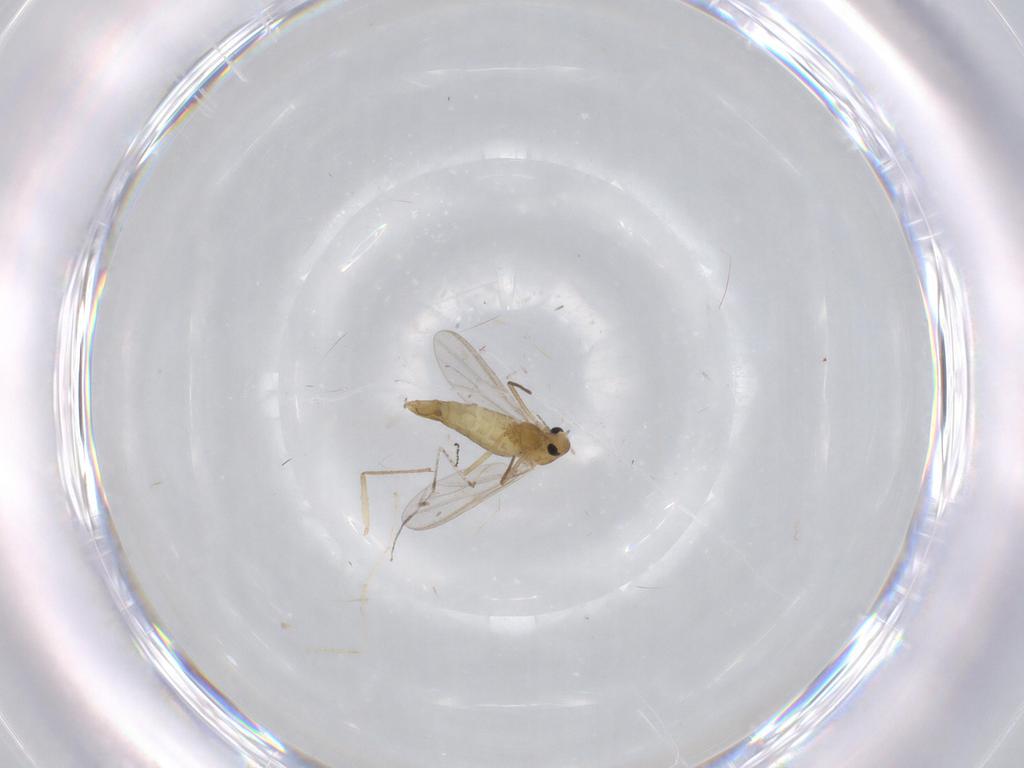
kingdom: Animalia
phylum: Arthropoda
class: Insecta
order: Diptera
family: Chironomidae
